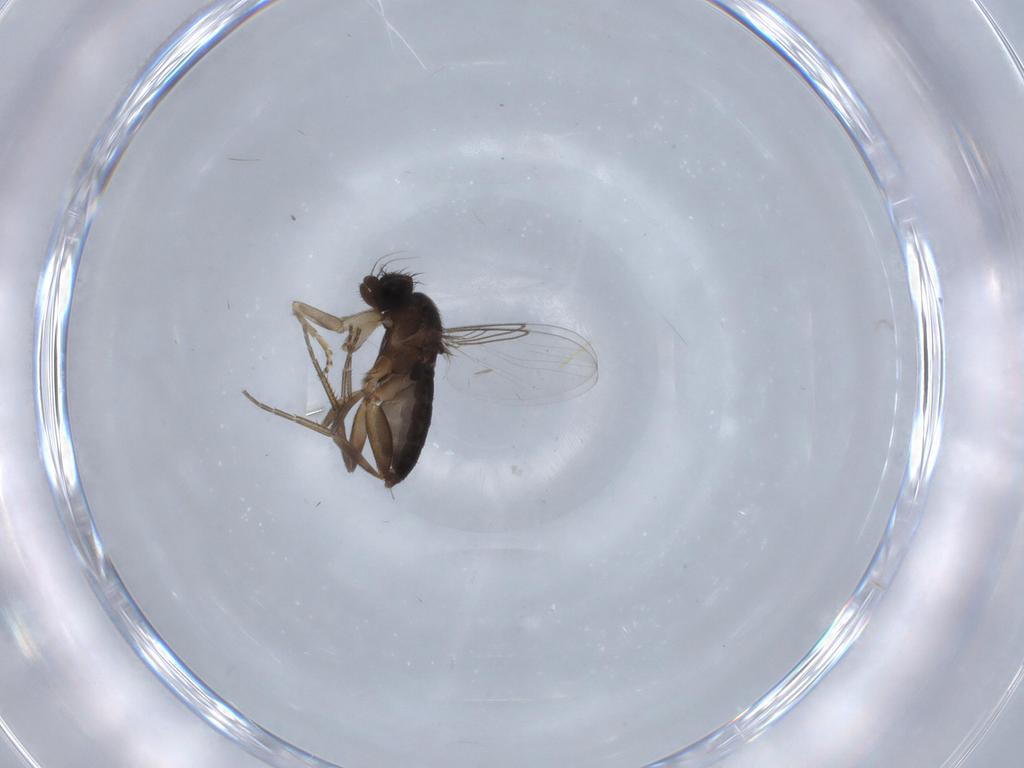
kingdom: Animalia
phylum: Arthropoda
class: Insecta
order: Diptera
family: Phoridae
